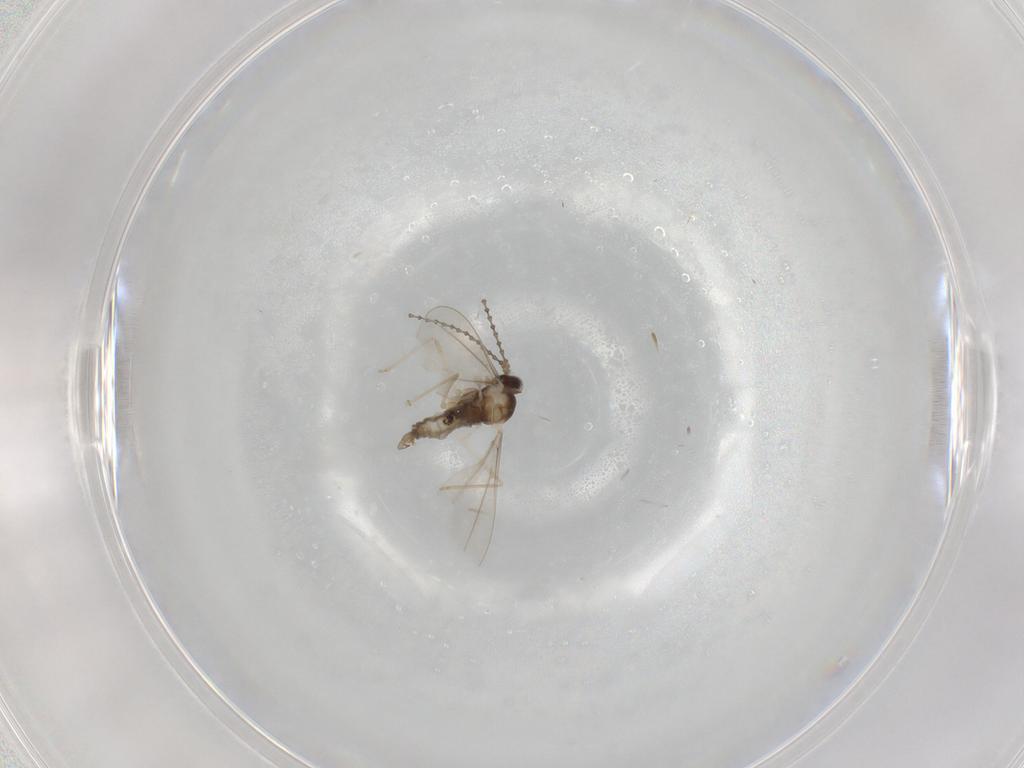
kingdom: Animalia
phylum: Arthropoda
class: Insecta
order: Diptera
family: Cecidomyiidae
